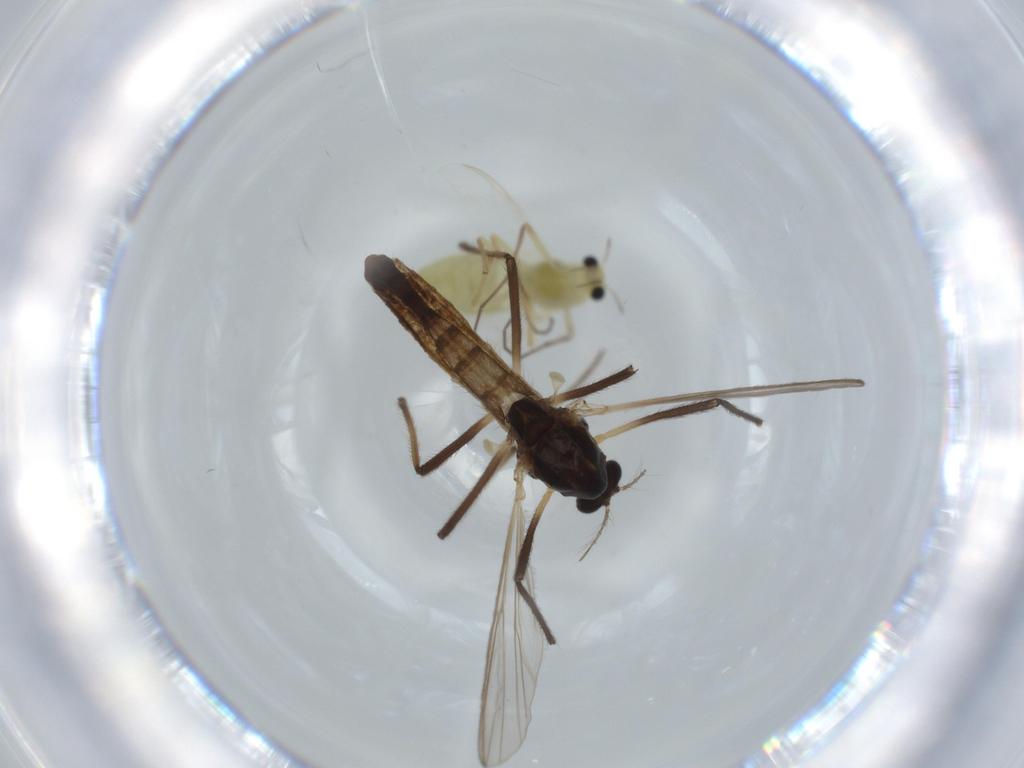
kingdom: Animalia
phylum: Arthropoda
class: Insecta
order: Diptera
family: Chironomidae
